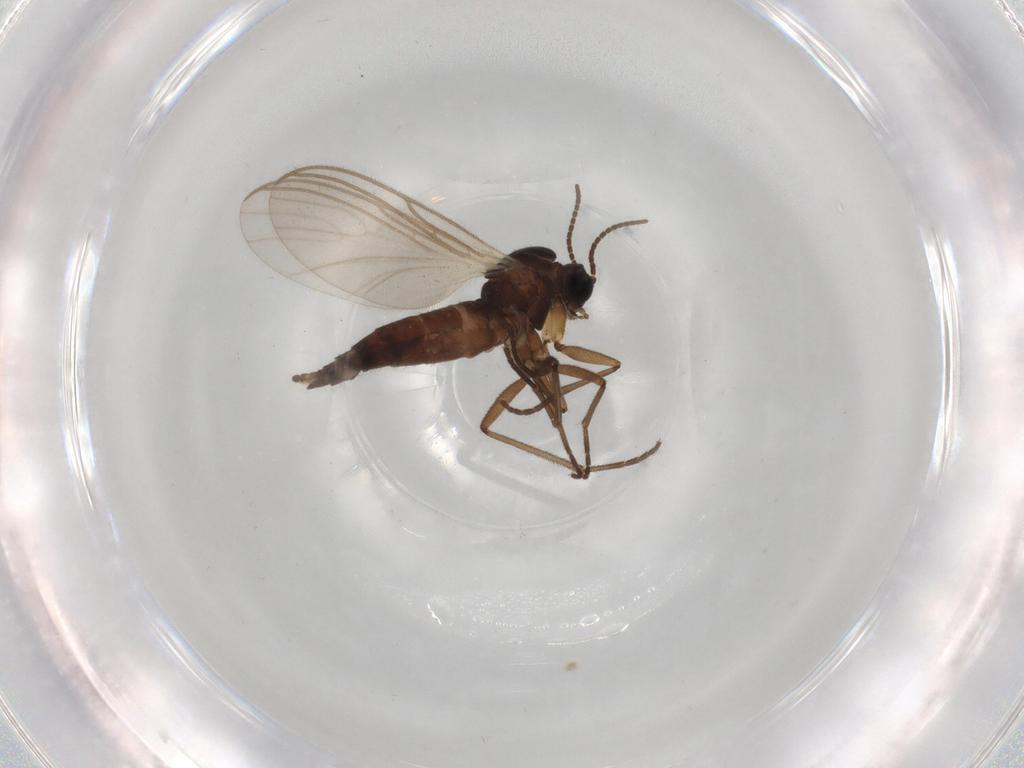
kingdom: Animalia
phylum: Arthropoda
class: Insecta
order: Diptera
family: Sciaridae
